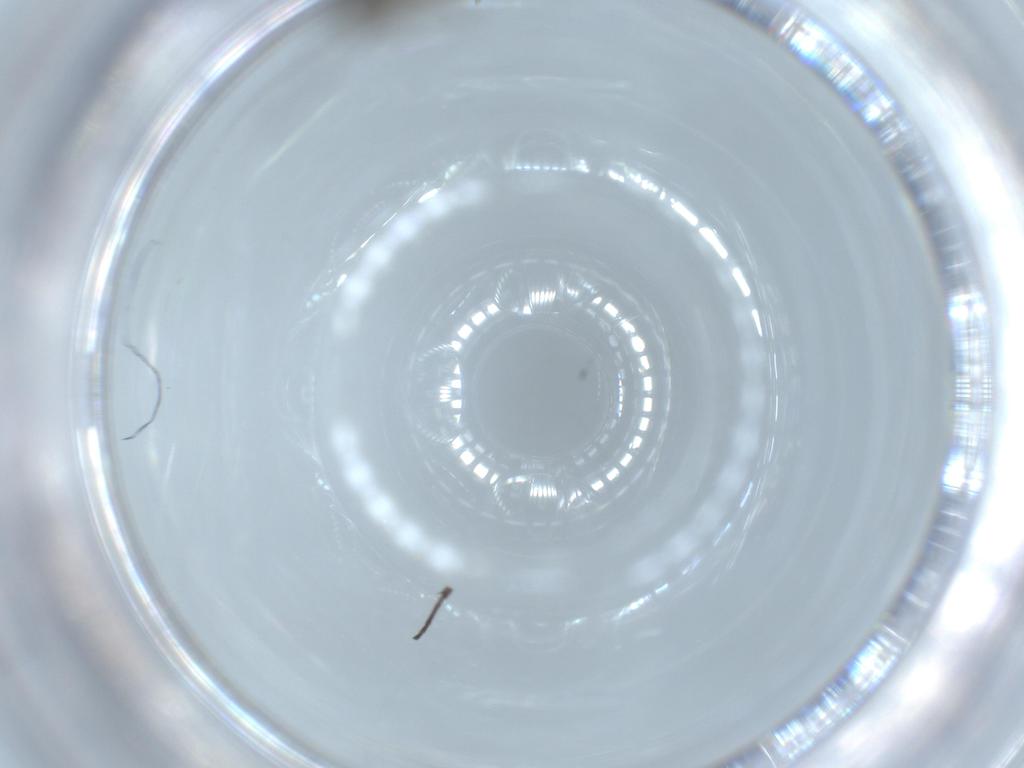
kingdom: Animalia
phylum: Arthropoda
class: Insecta
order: Diptera
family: Sciaridae
